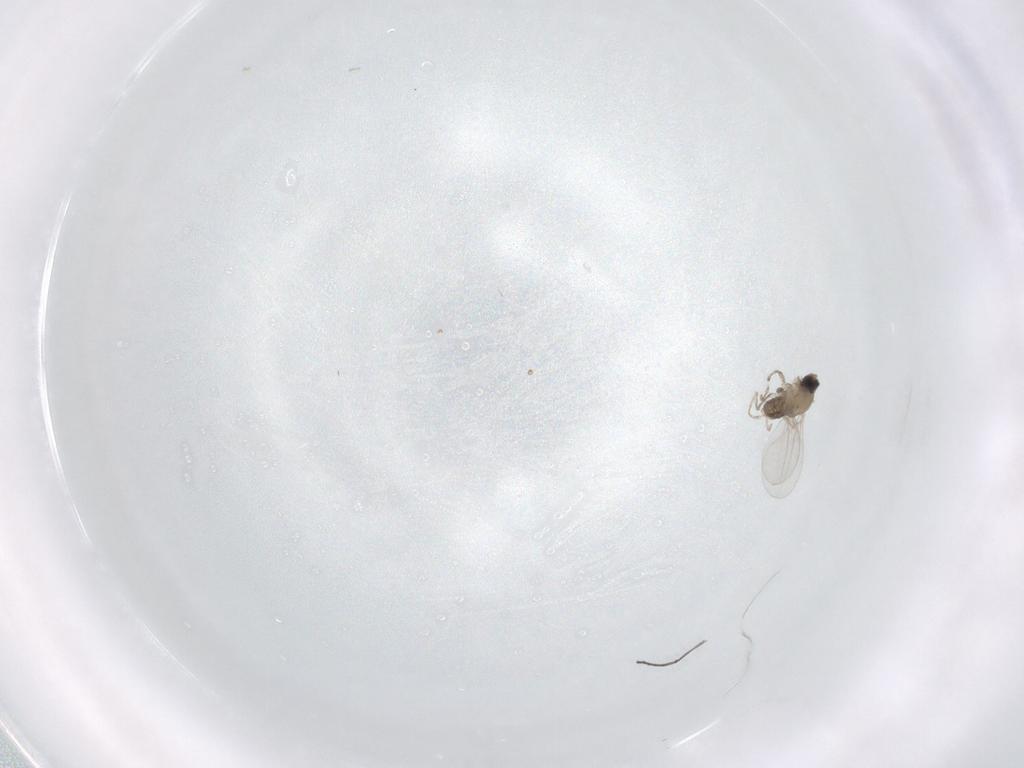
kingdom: Animalia
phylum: Arthropoda
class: Insecta
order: Diptera
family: Cecidomyiidae
